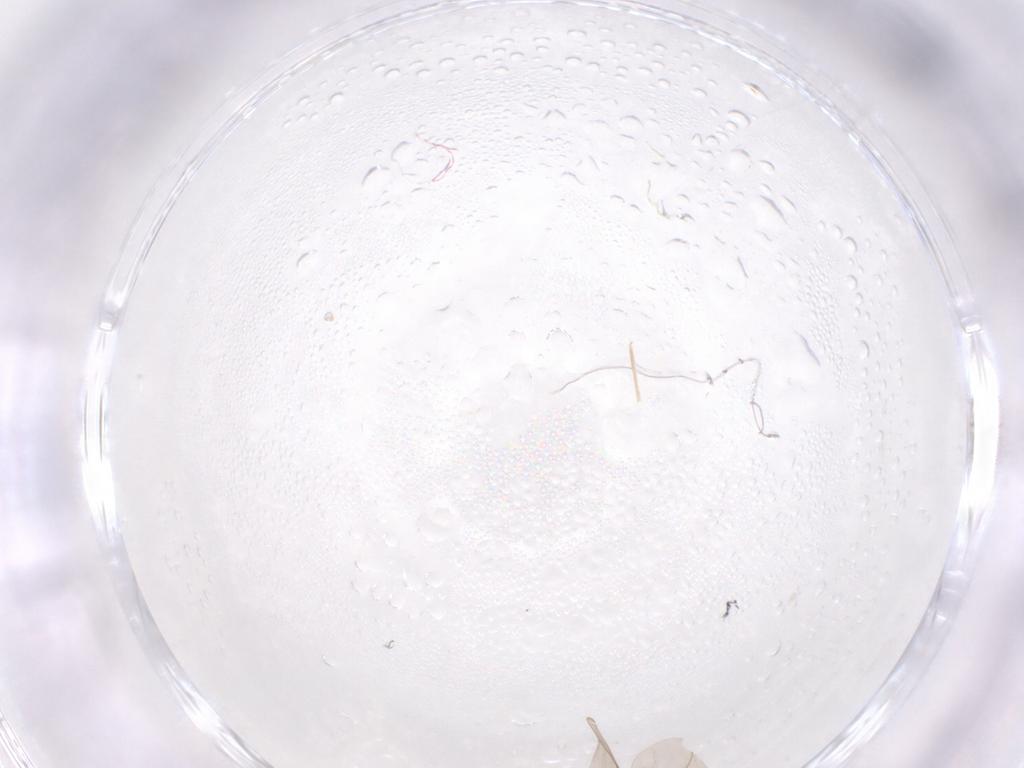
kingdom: Animalia
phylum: Arthropoda
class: Insecta
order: Diptera
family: Cecidomyiidae
